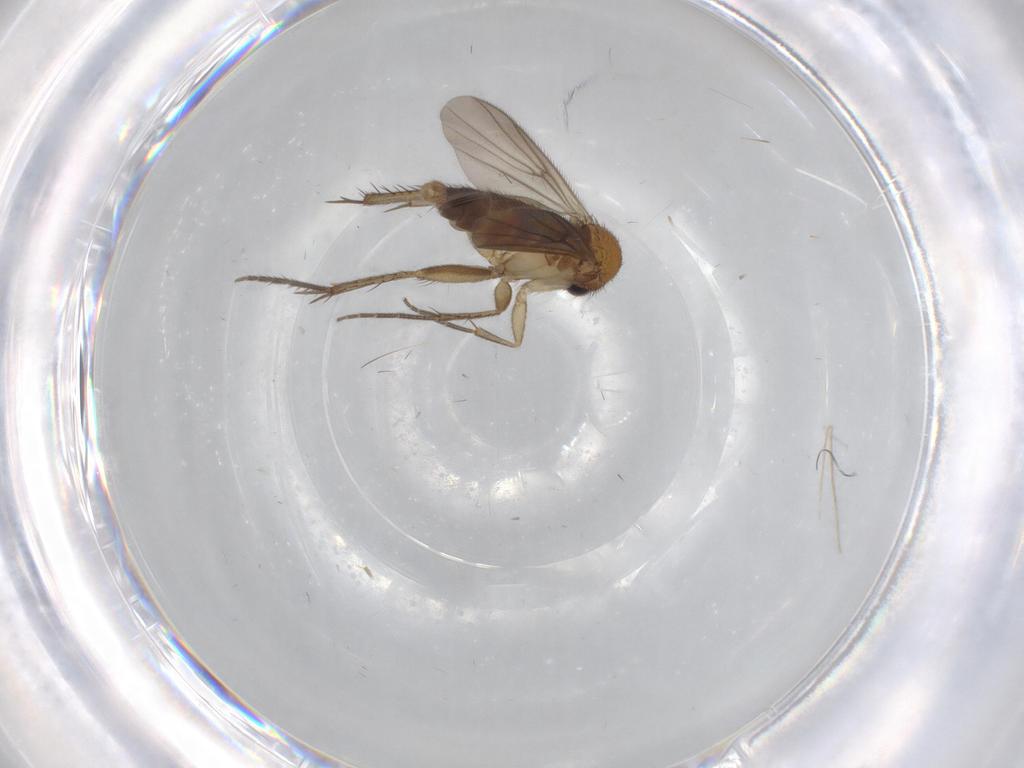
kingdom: Animalia
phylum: Arthropoda
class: Insecta
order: Diptera
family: Mycetophilidae
